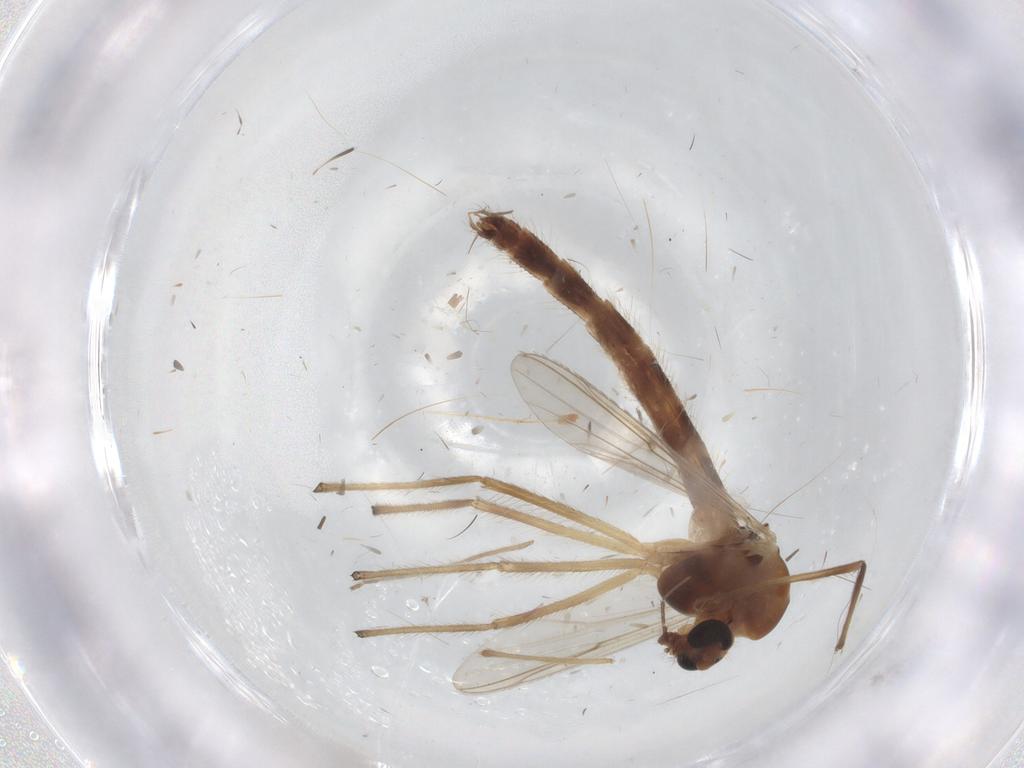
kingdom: Animalia
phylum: Arthropoda
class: Insecta
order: Diptera
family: Chironomidae
